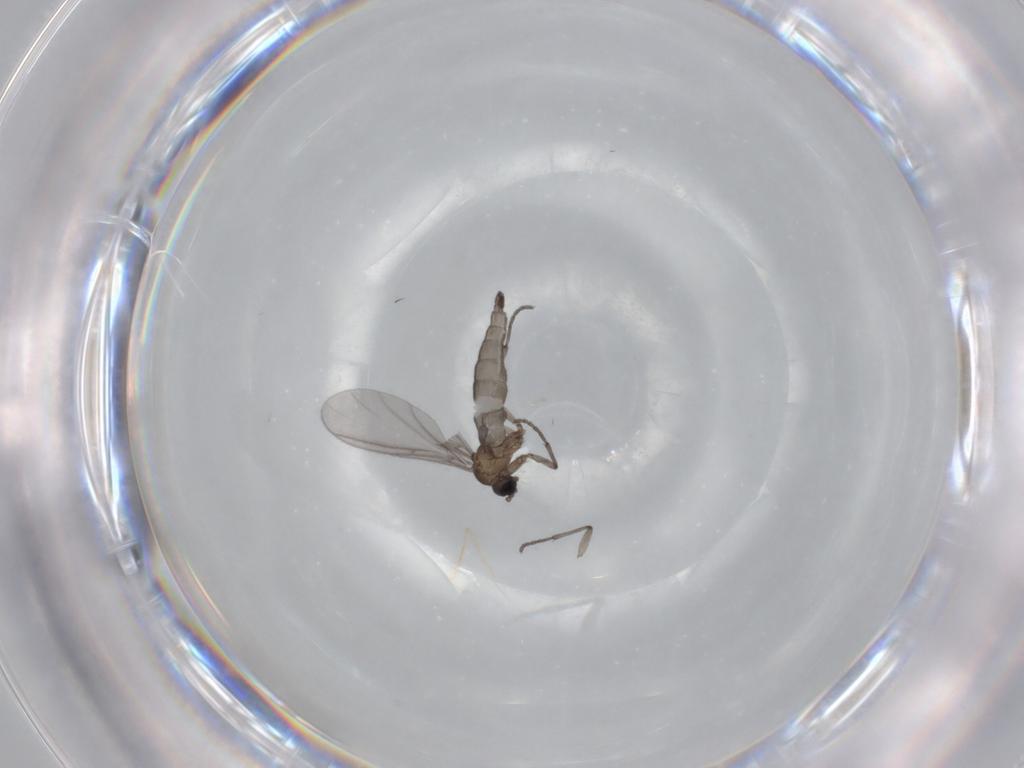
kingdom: Animalia
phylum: Arthropoda
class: Insecta
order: Diptera
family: Sciaridae
